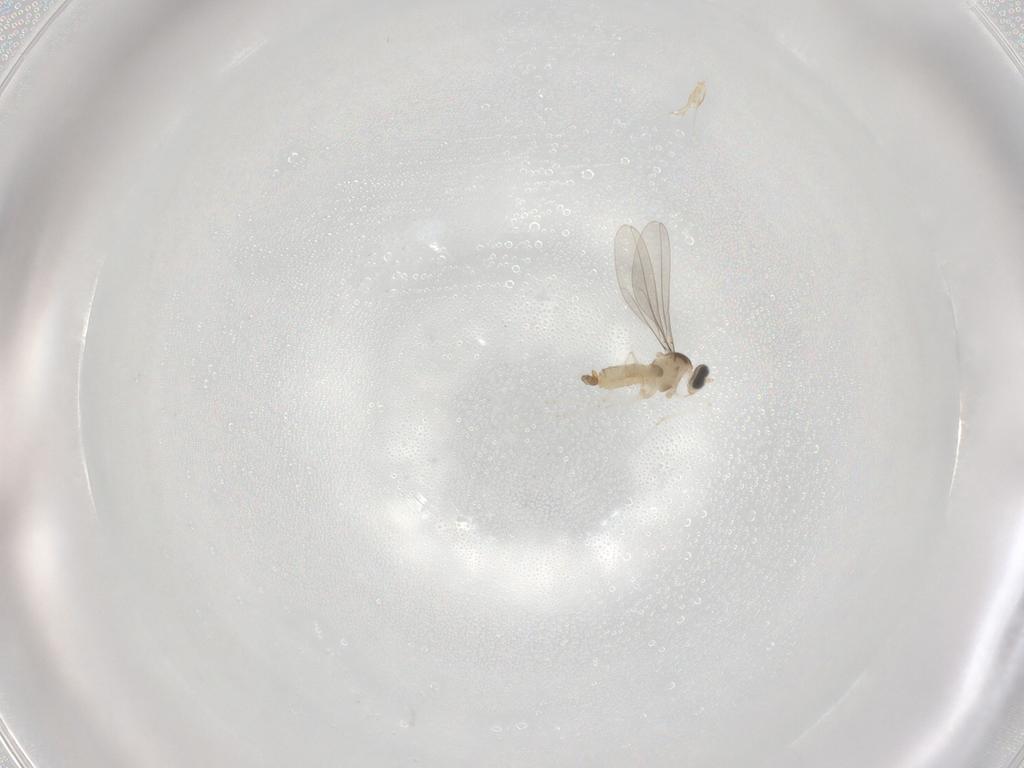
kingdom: Animalia
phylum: Arthropoda
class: Insecta
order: Diptera
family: Cecidomyiidae
